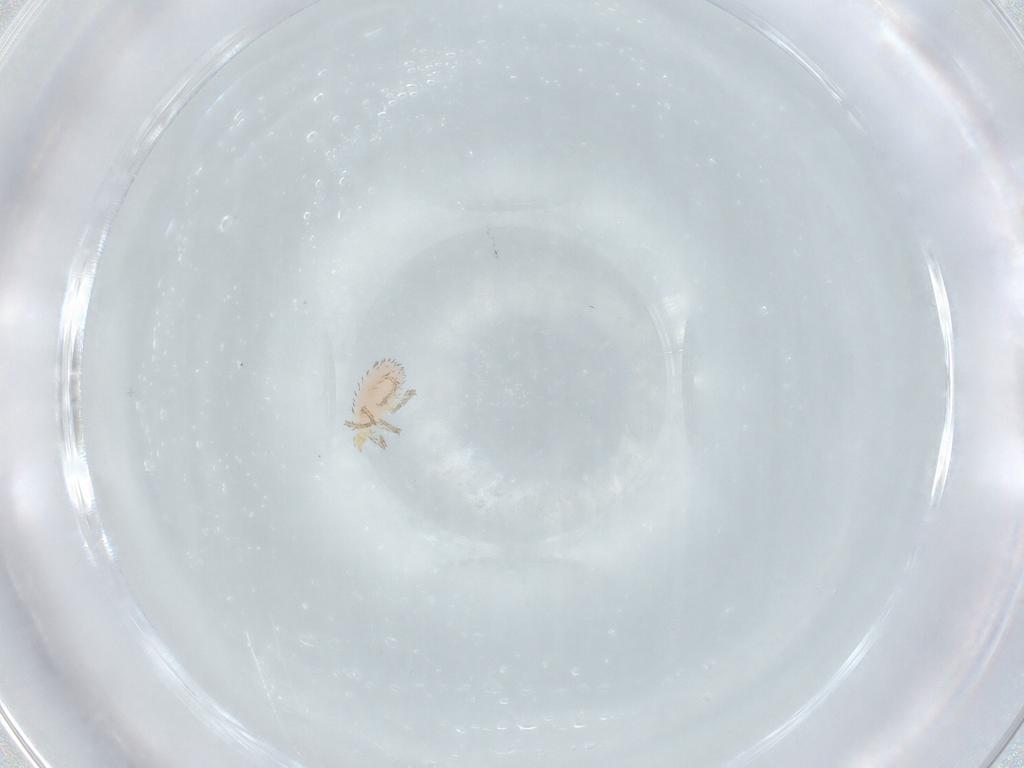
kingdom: Animalia
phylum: Arthropoda
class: Arachnida
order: Trombidiformes
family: Erythraeidae
